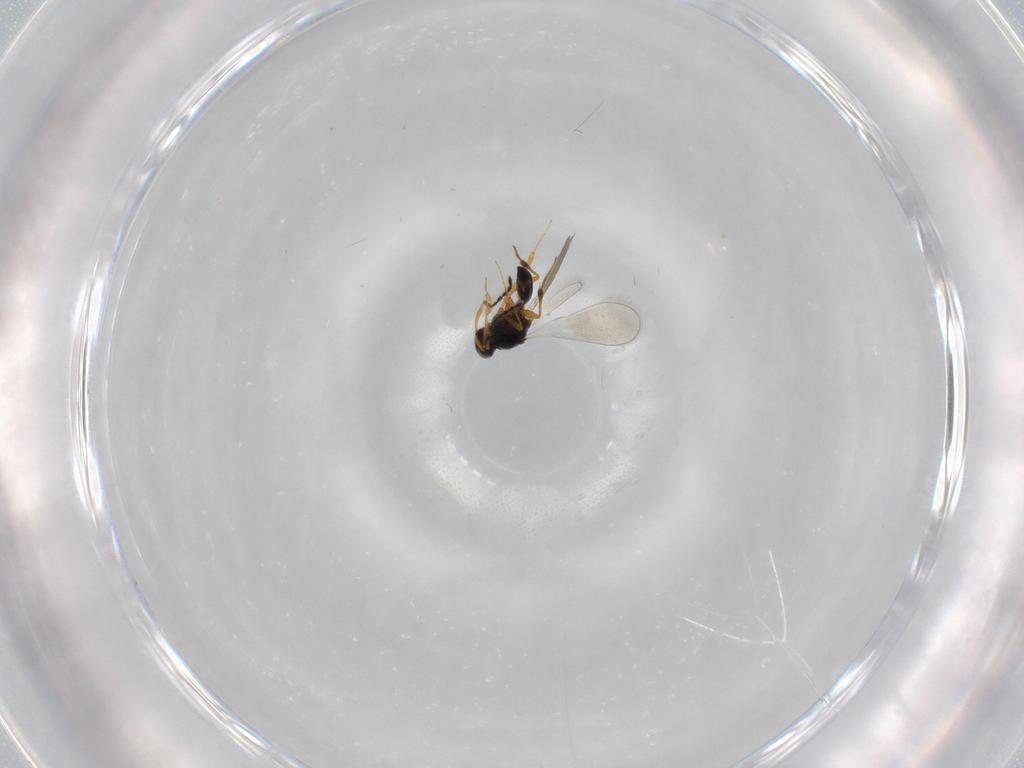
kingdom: Animalia
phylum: Arthropoda
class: Insecta
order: Hymenoptera
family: Platygastridae
